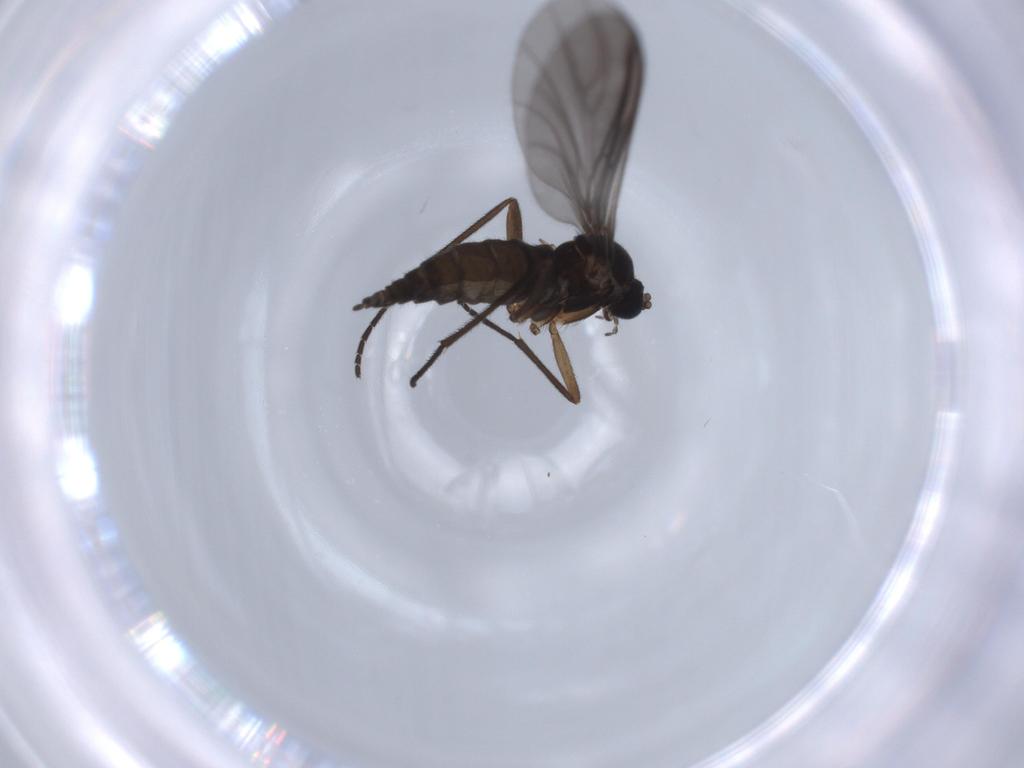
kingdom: Animalia
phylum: Arthropoda
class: Insecta
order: Diptera
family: Sciaridae
